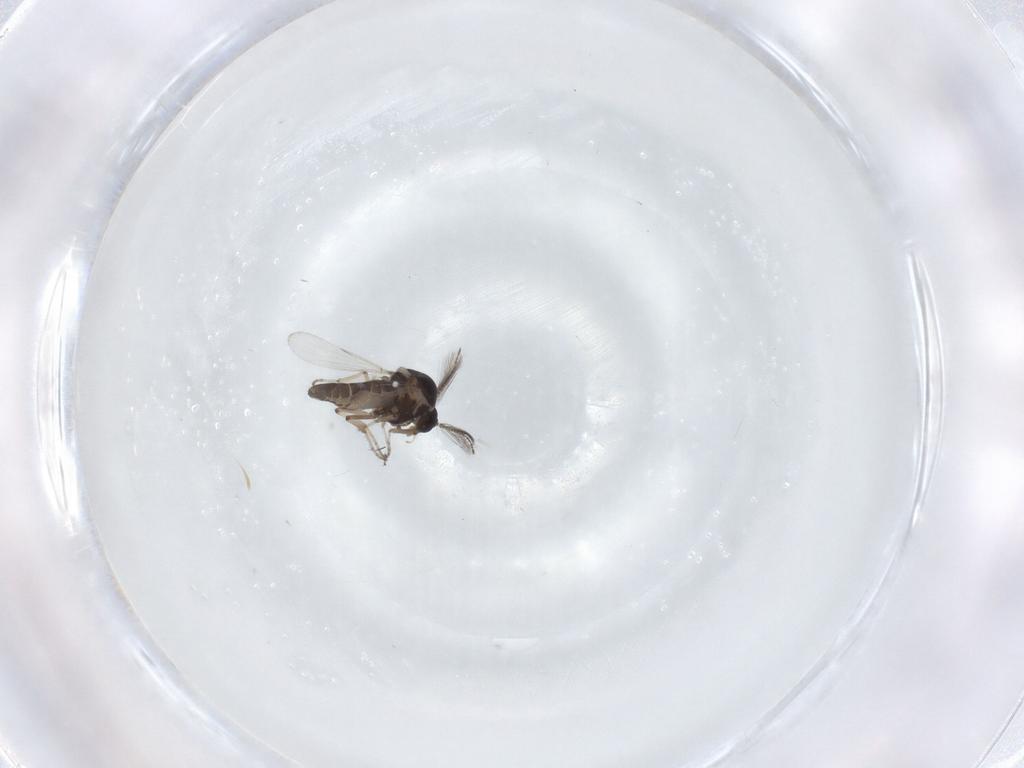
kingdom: Animalia
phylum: Arthropoda
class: Insecta
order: Diptera
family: Ceratopogonidae
